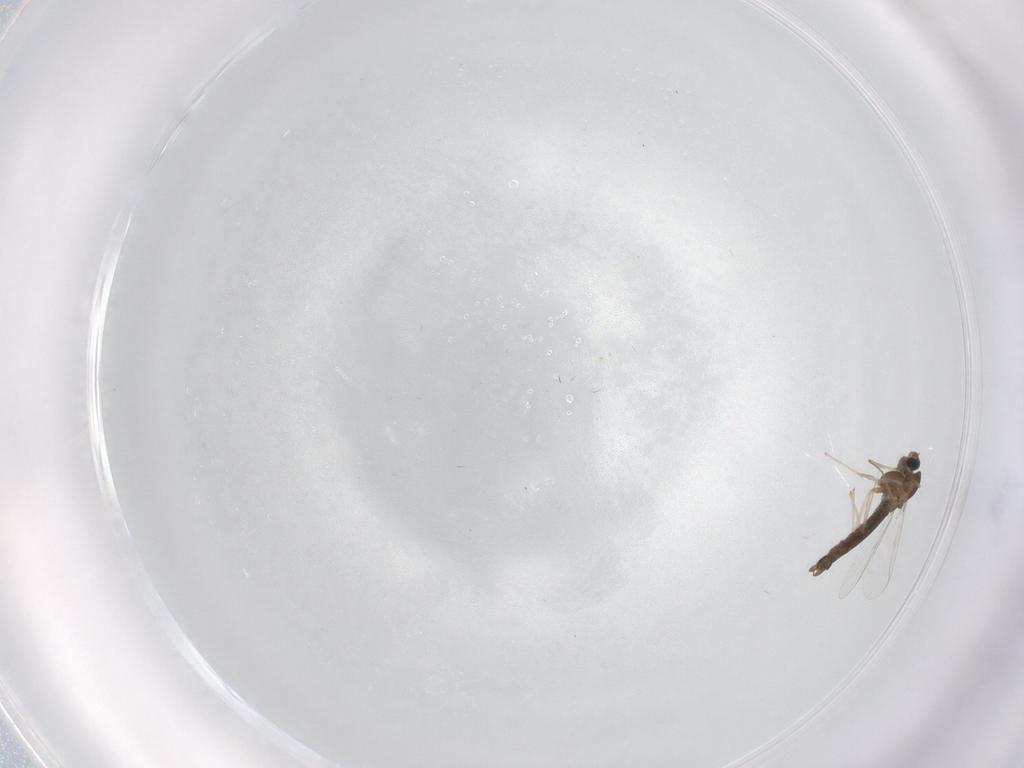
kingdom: Animalia
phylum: Arthropoda
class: Insecta
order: Diptera
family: Chironomidae
